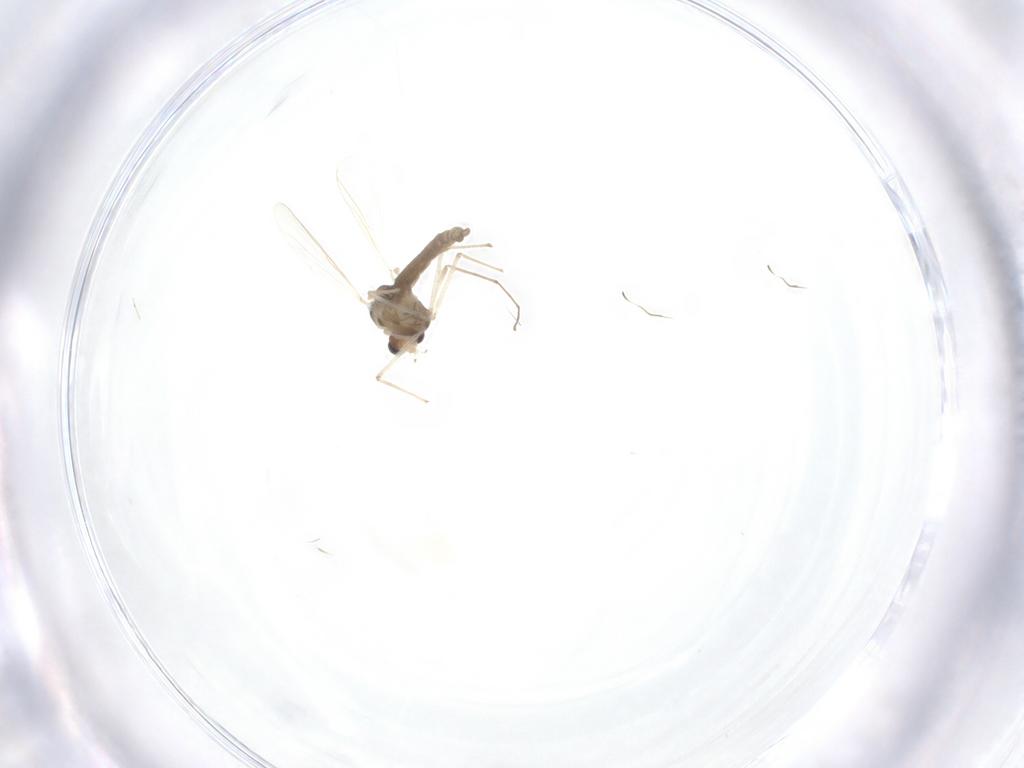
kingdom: Animalia
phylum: Arthropoda
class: Insecta
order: Diptera
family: Chironomidae
